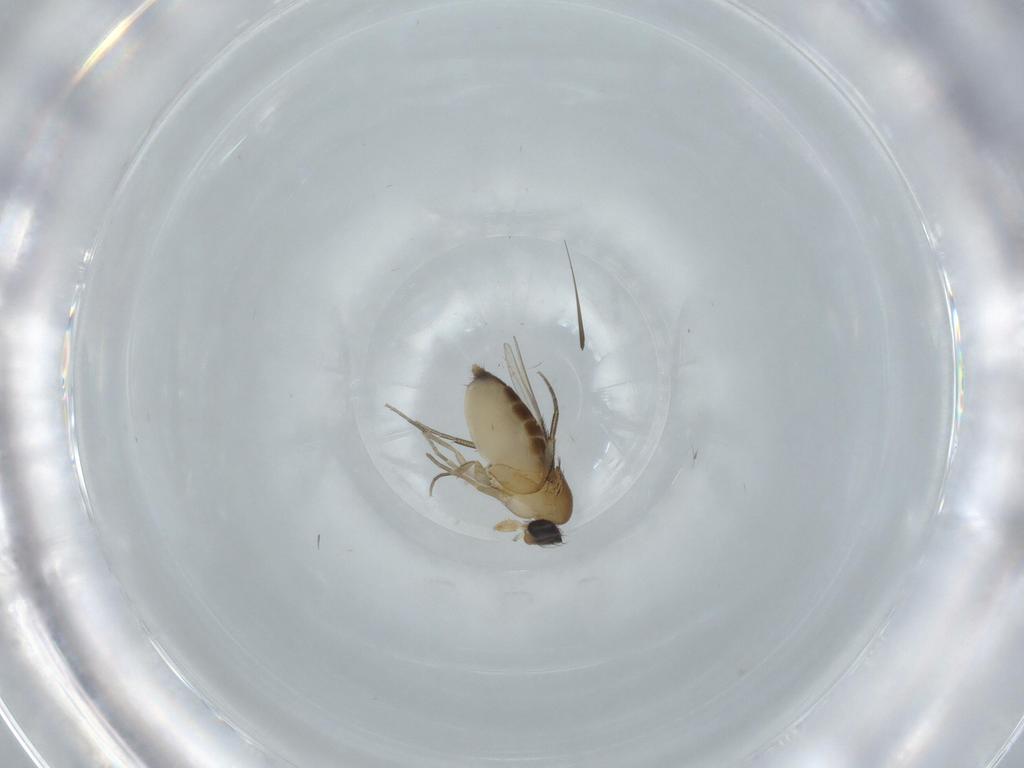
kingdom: Animalia
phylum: Arthropoda
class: Insecta
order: Diptera
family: Phoridae
